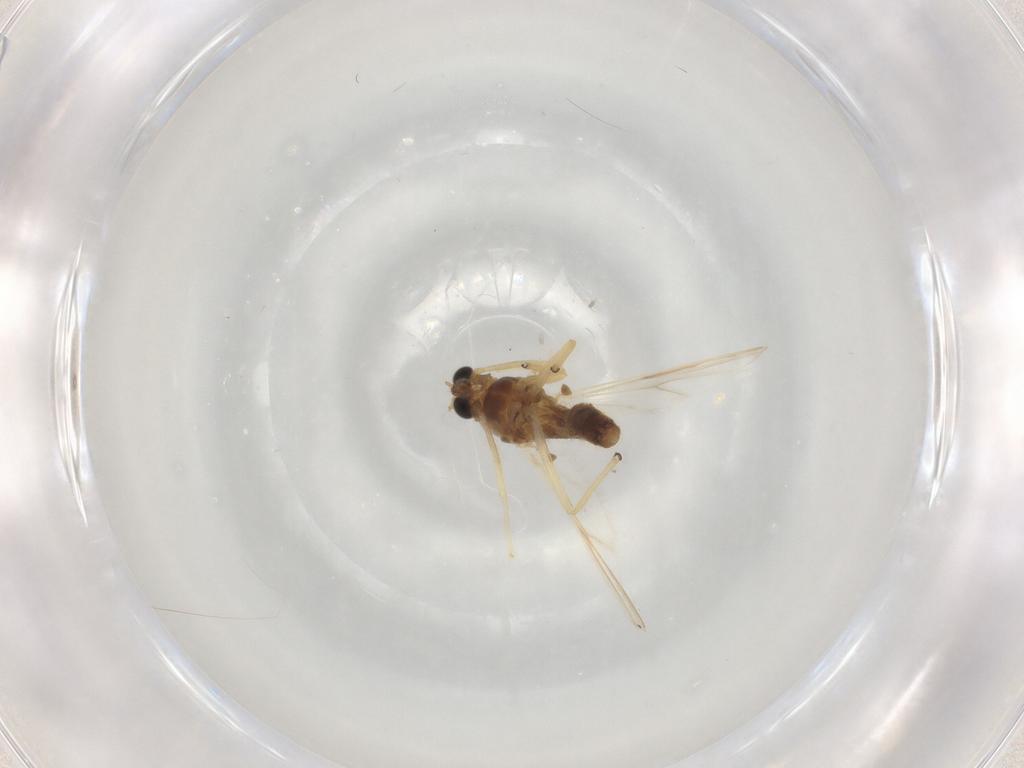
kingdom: Animalia
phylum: Arthropoda
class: Insecta
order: Diptera
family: Chironomidae
